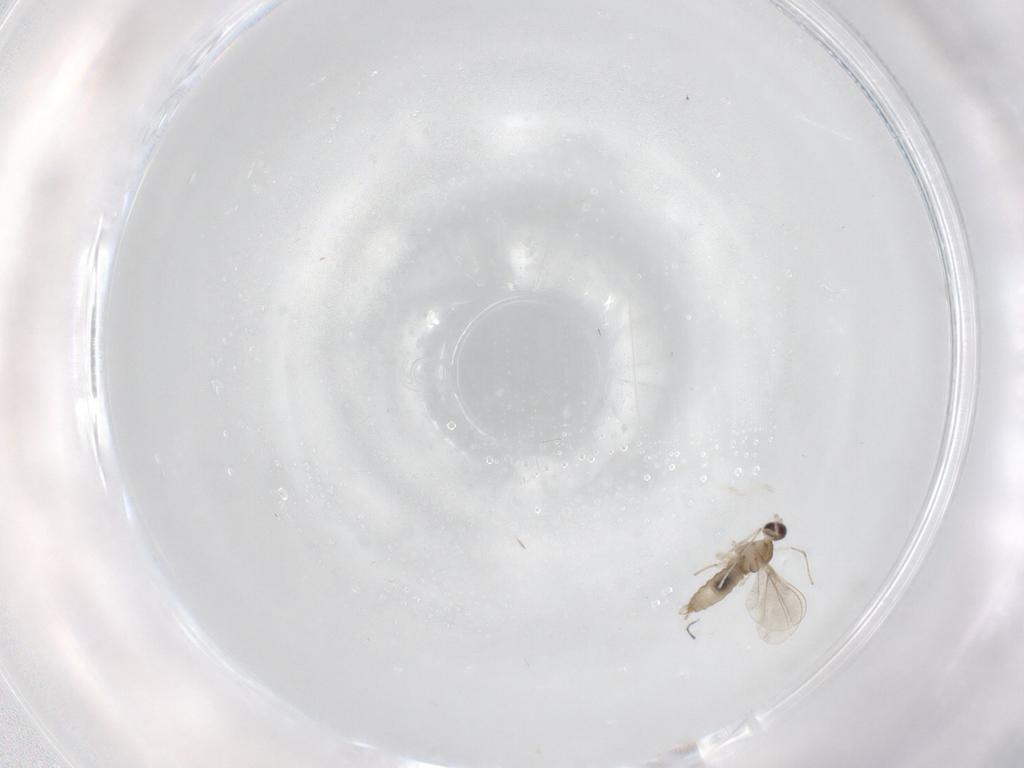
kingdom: Animalia
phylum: Arthropoda
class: Insecta
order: Diptera
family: Cecidomyiidae
